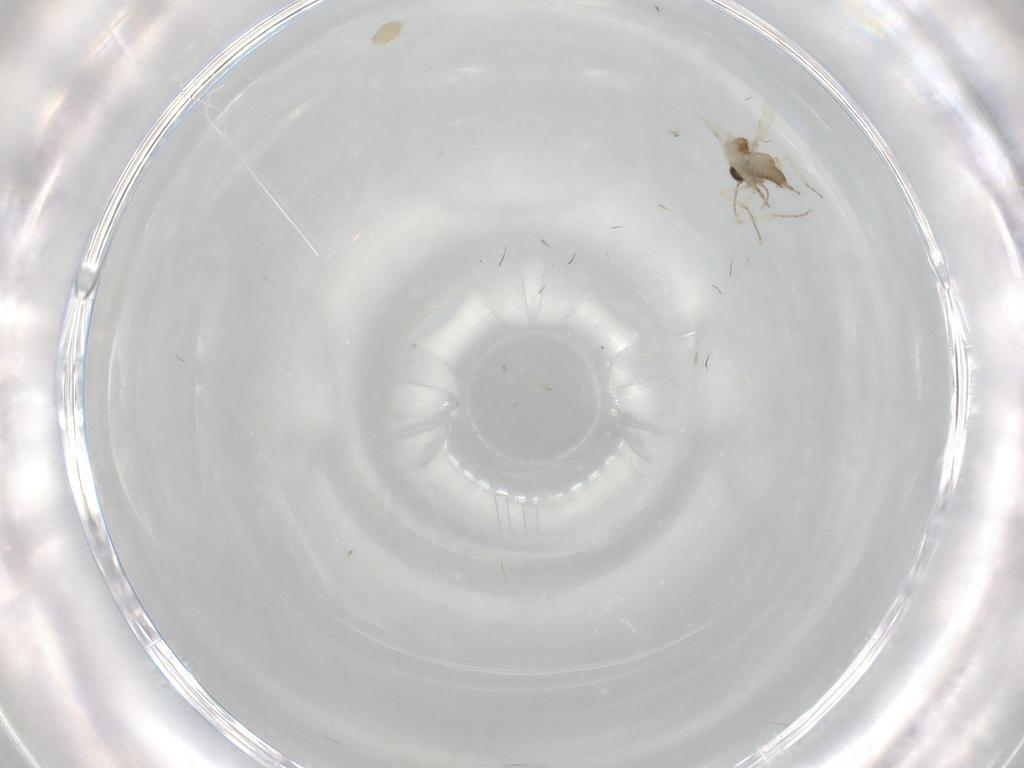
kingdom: Animalia
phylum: Arthropoda
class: Insecta
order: Diptera
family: Ceratopogonidae
